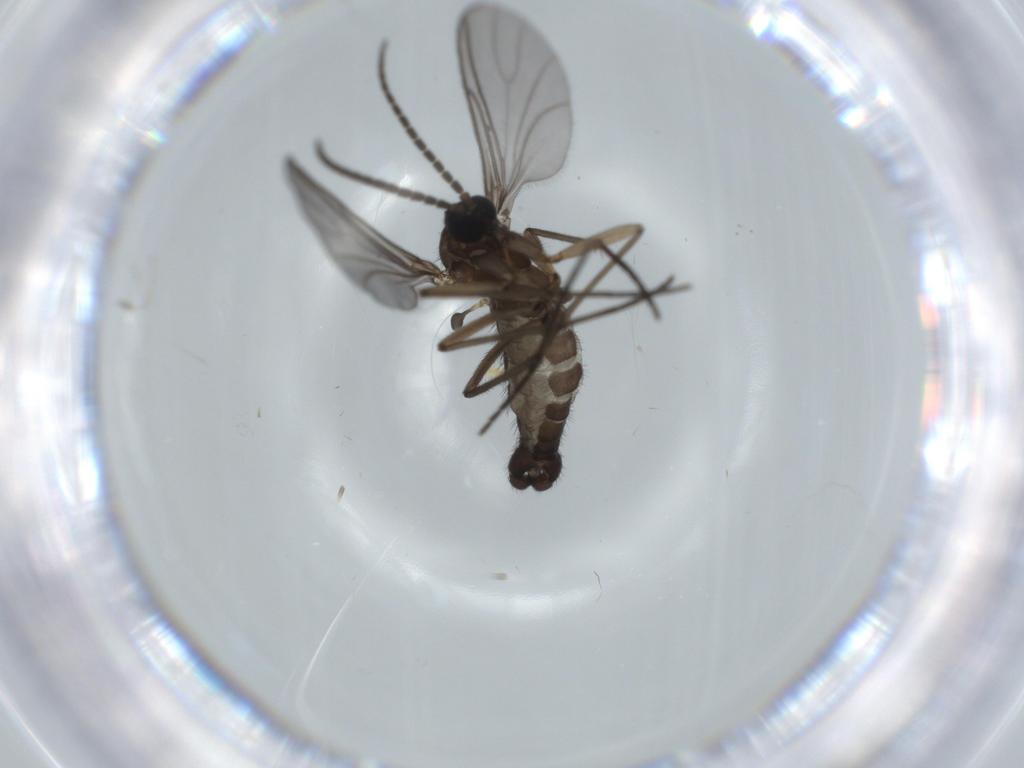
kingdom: Animalia
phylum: Arthropoda
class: Insecta
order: Diptera
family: Sciaridae
